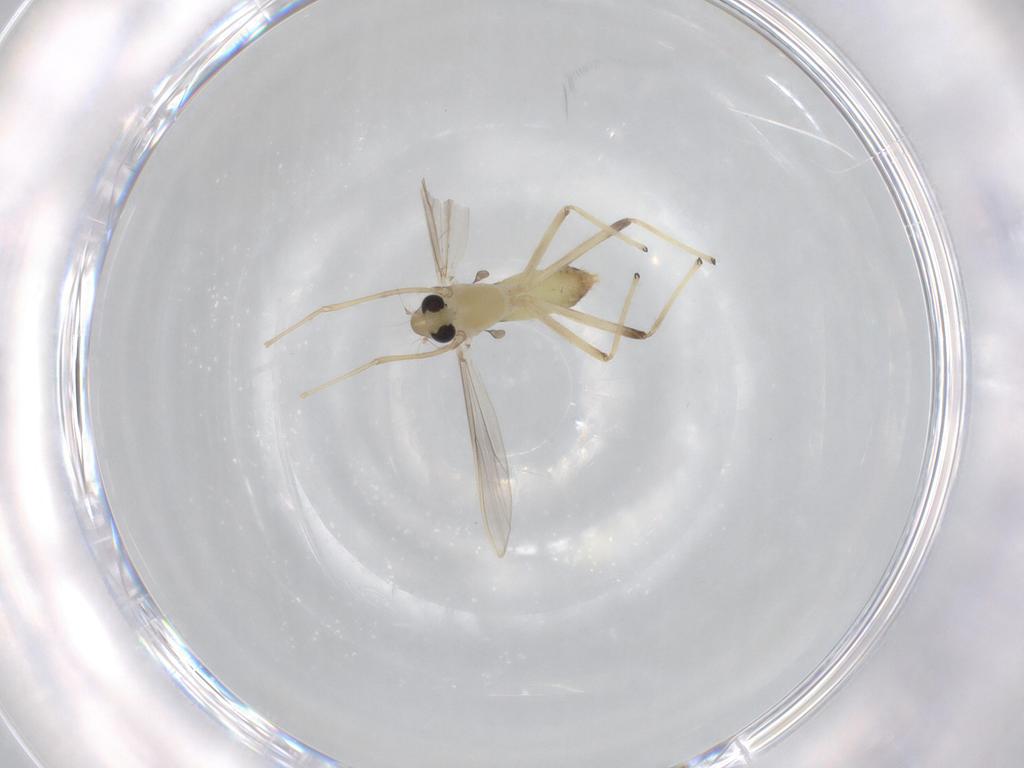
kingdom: Animalia
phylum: Arthropoda
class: Insecta
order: Diptera
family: Chironomidae
